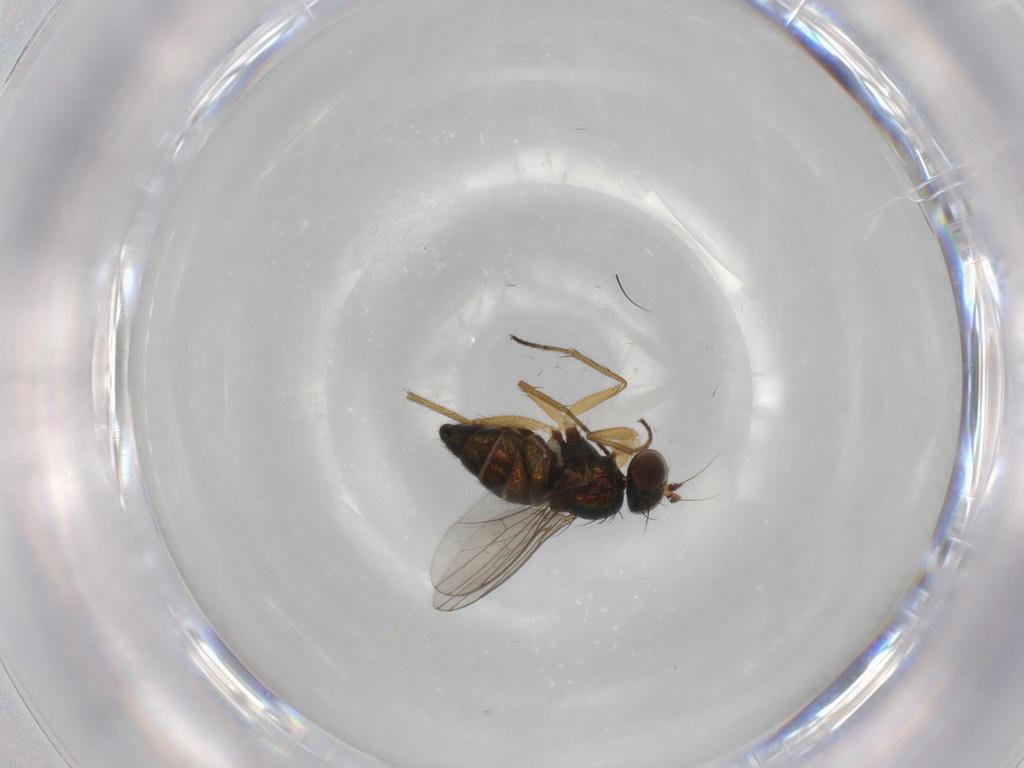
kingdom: Animalia
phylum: Arthropoda
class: Insecta
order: Diptera
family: Dolichopodidae
